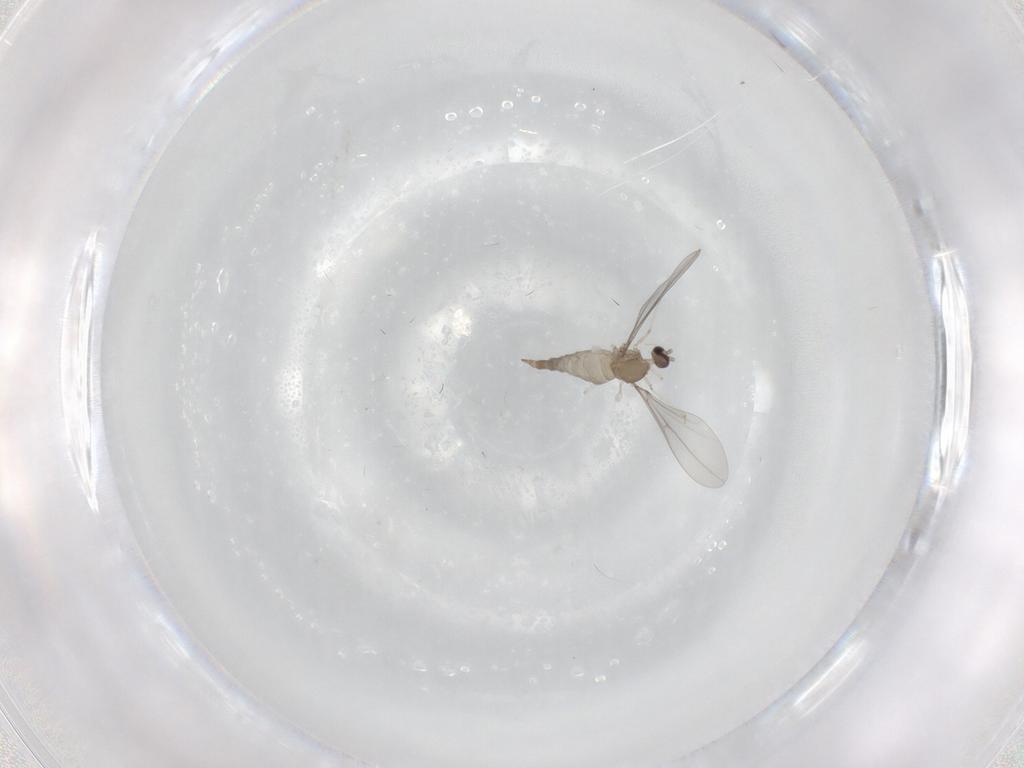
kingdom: Animalia
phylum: Arthropoda
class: Insecta
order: Diptera
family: Cecidomyiidae
